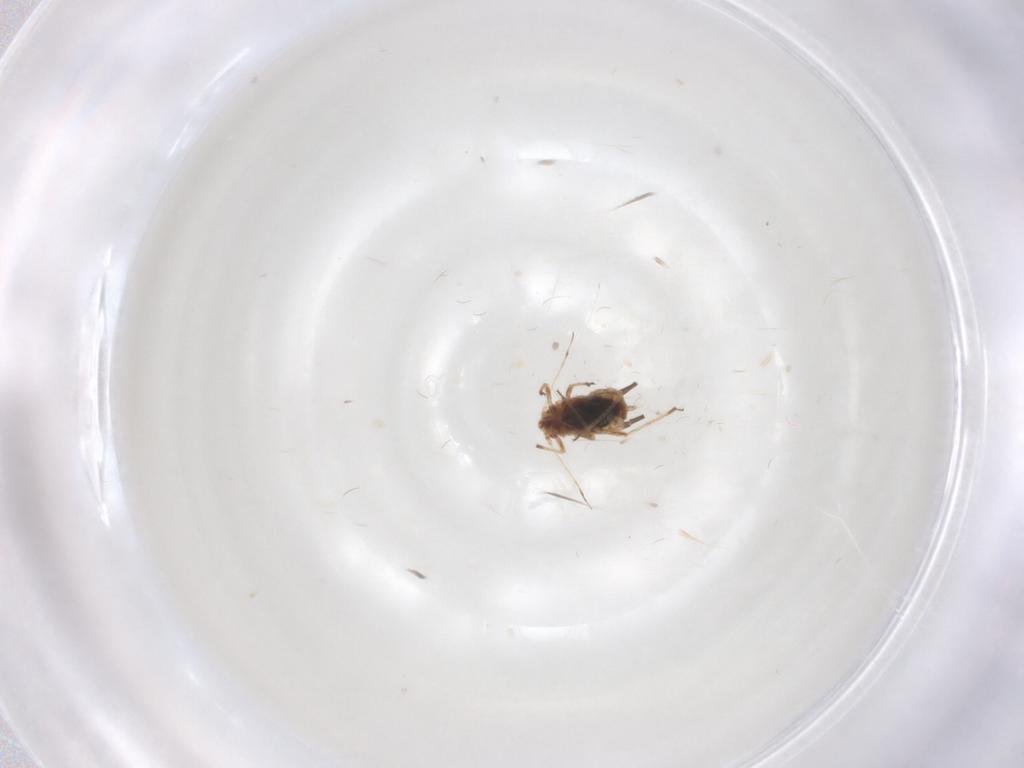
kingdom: Animalia
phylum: Arthropoda
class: Insecta
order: Hemiptera
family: Aphididae
